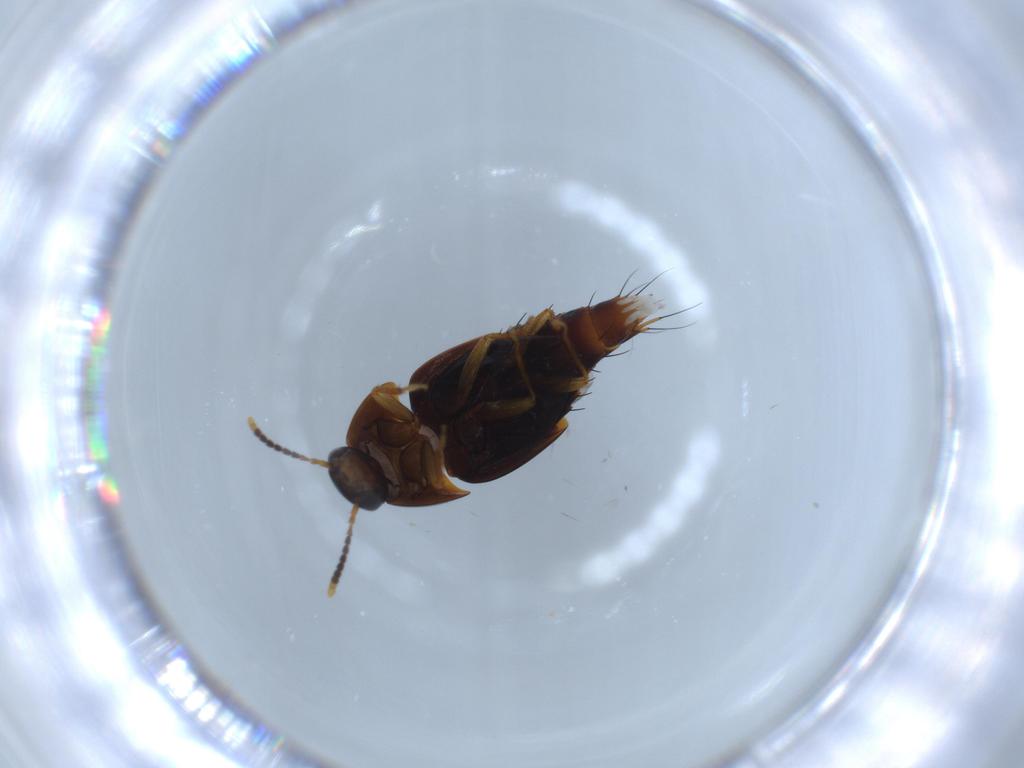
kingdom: Animalia
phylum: Arthropoda
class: Insecta
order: Coleoptera
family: Staphylinidae
